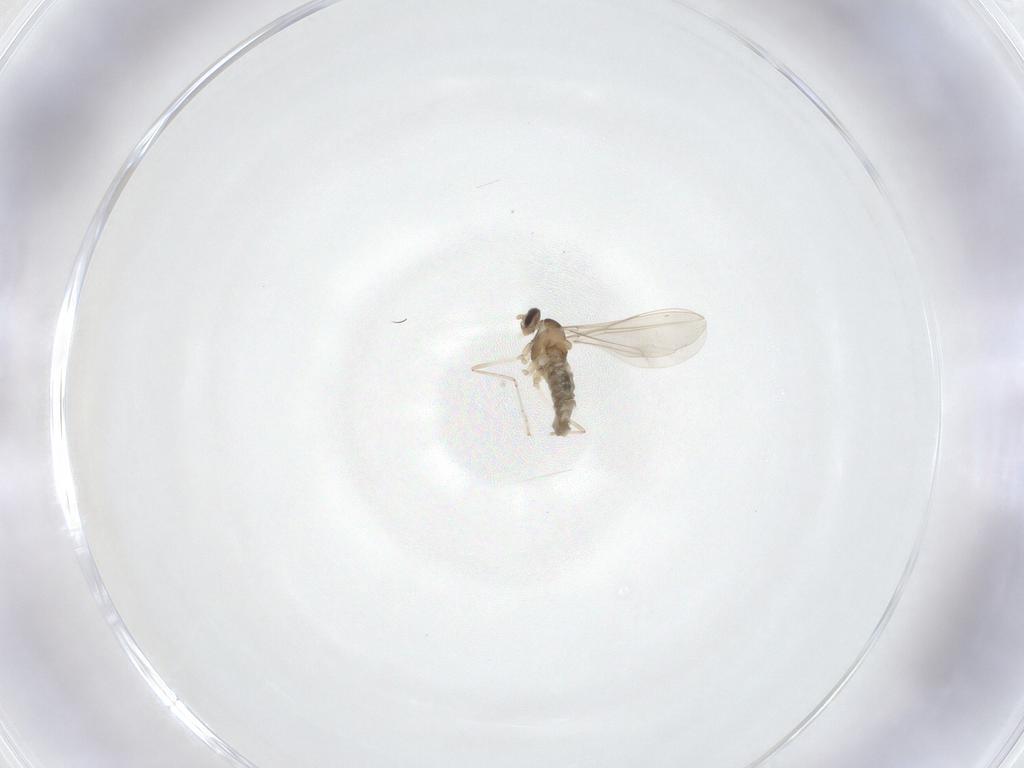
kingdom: Animalia
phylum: Arthropoda
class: Insecta
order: Diptera
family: Cecidomyiidae
